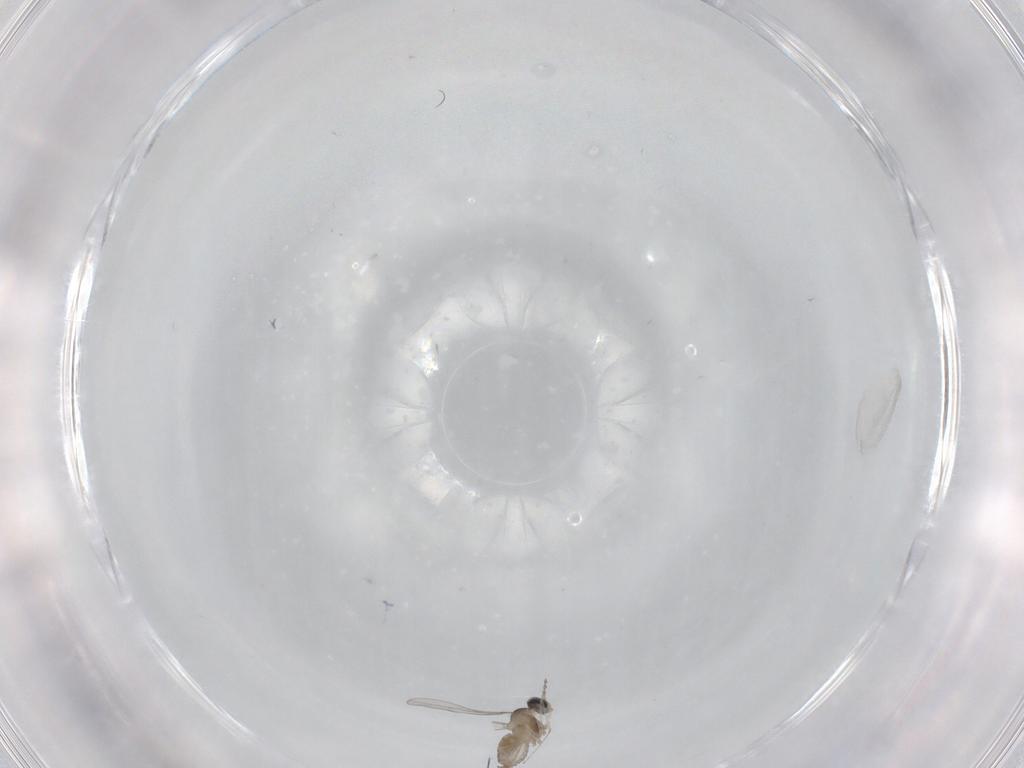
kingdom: Animalia
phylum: Arthropoda
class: Insecta
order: Diptera
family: Chironomidae
